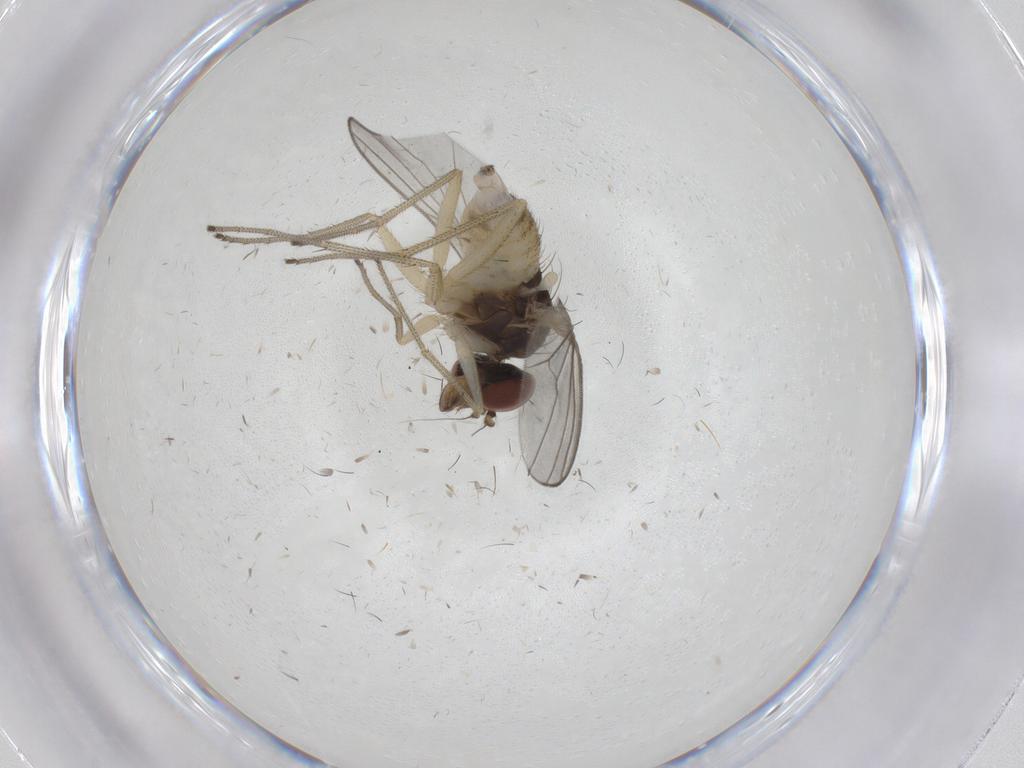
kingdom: Animalia
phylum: Arthropoda
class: Insecta
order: Diptera
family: Dolichopodidae
